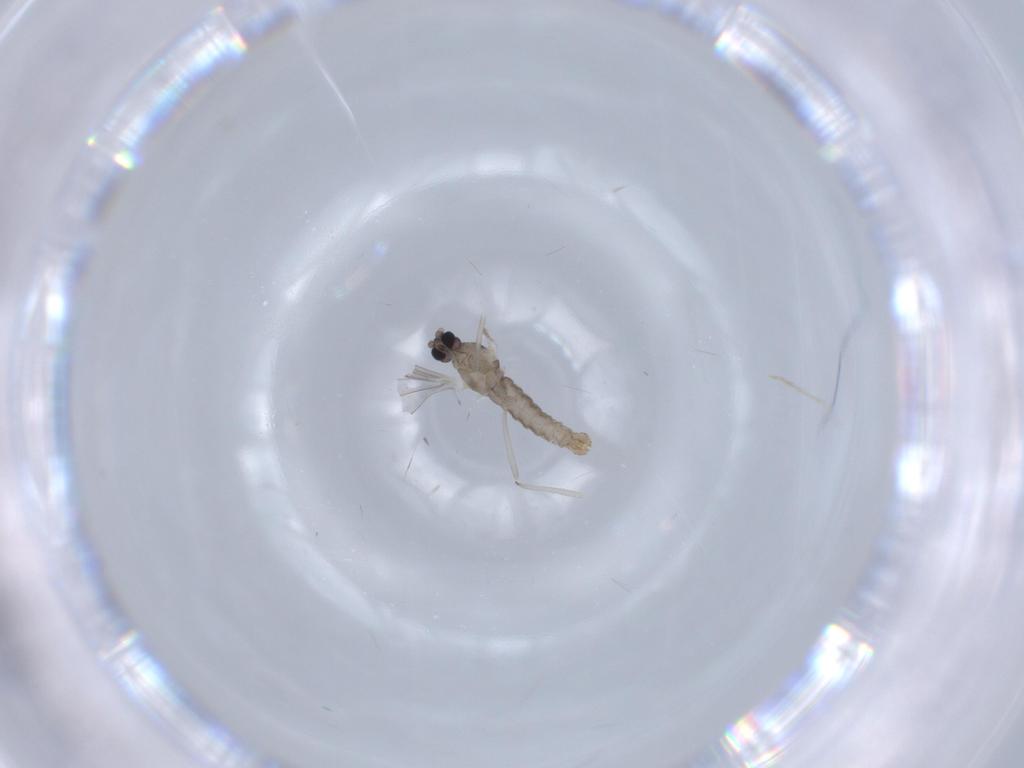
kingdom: Animalia
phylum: Arthropoda
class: Insecta
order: Diptera
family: Cecidomyiidae
